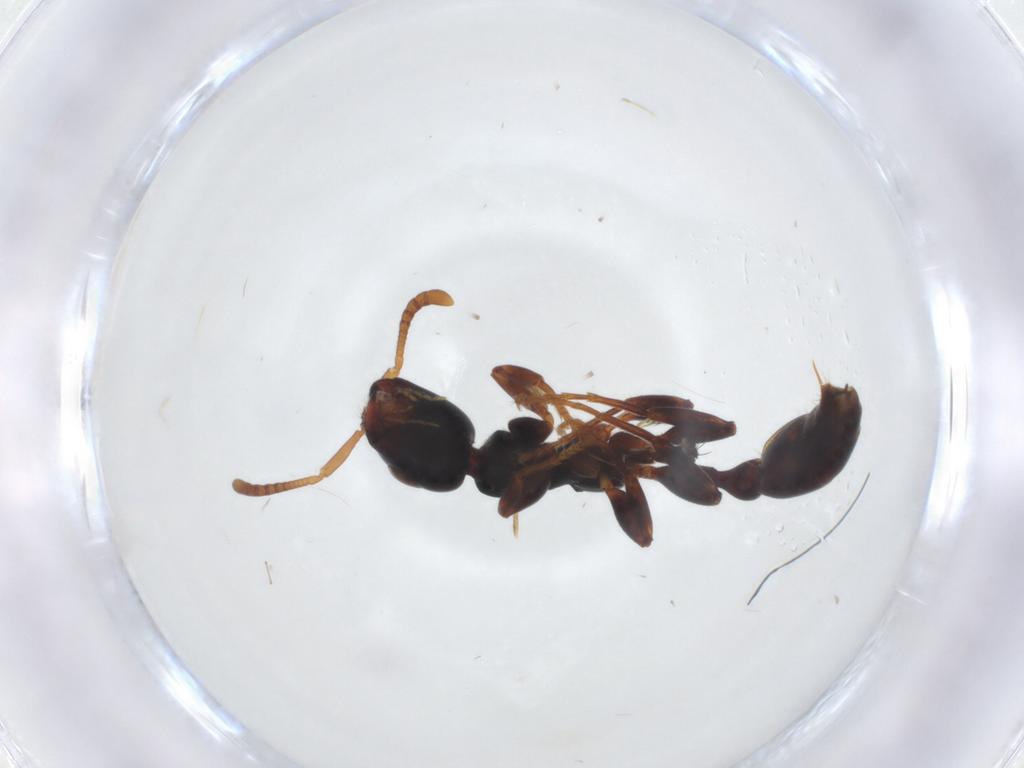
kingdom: Animalia
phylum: Arthropoda
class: Insecta
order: Hymenoptera
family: Formicidae
